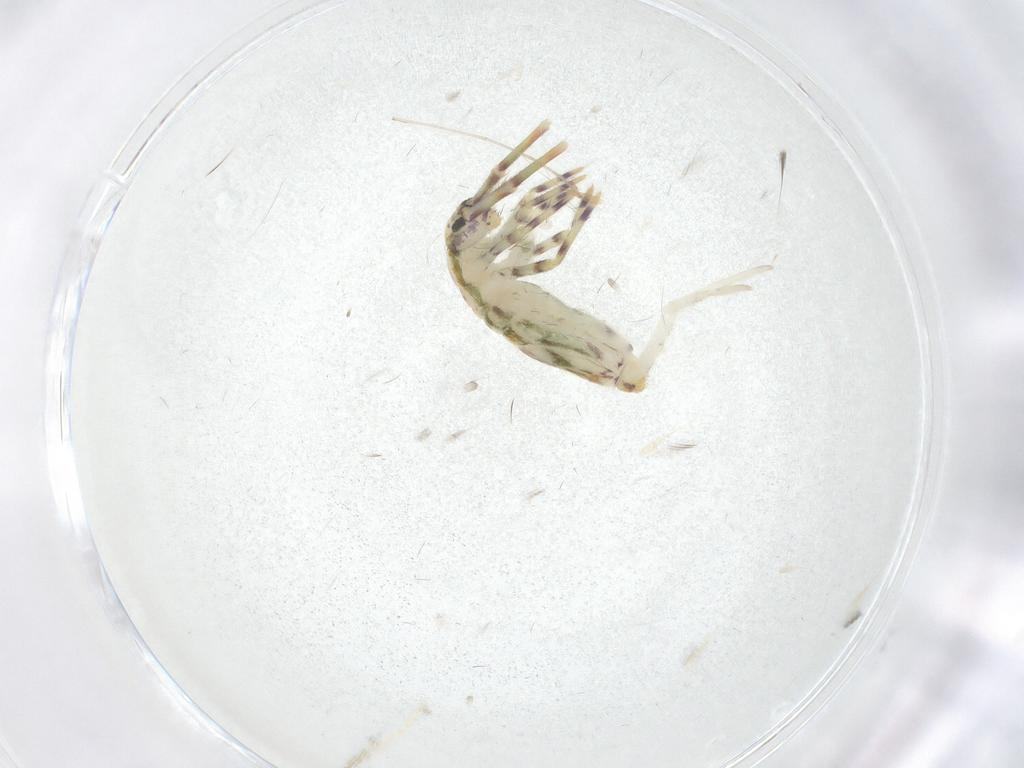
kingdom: Animalia
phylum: Arthropoda
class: Collembola
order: Entomobryomorpha
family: Entomobryidae
